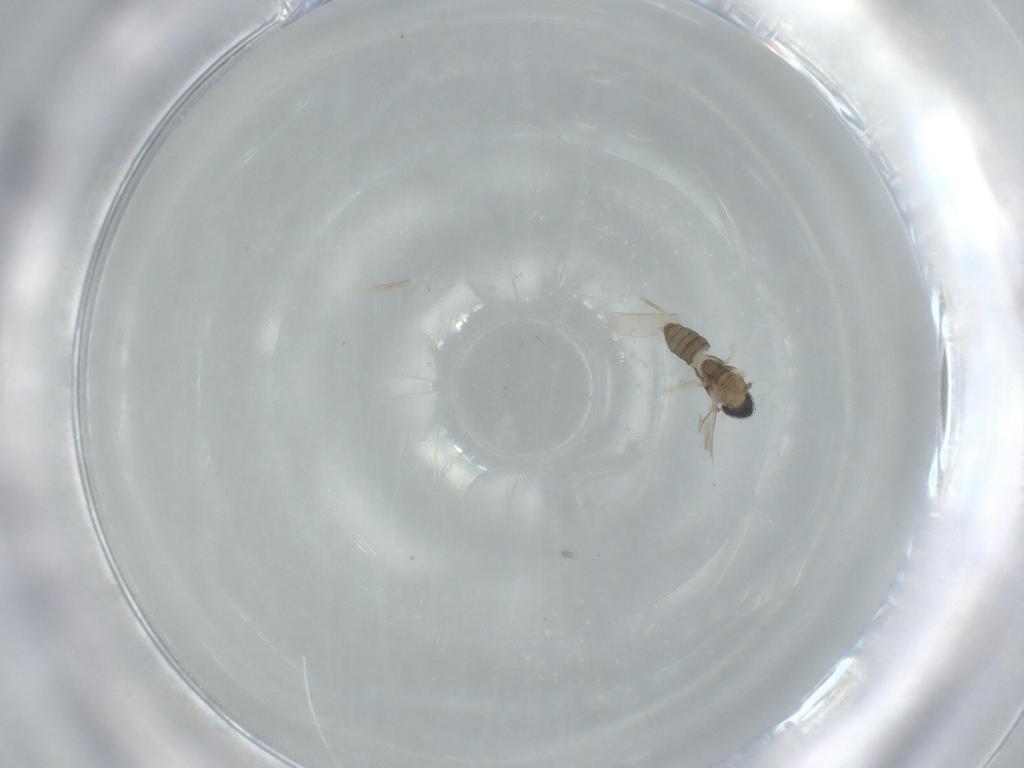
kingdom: Animalia
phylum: Arthropoda
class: Insecta
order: Diptera
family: Cecidomyiidae
